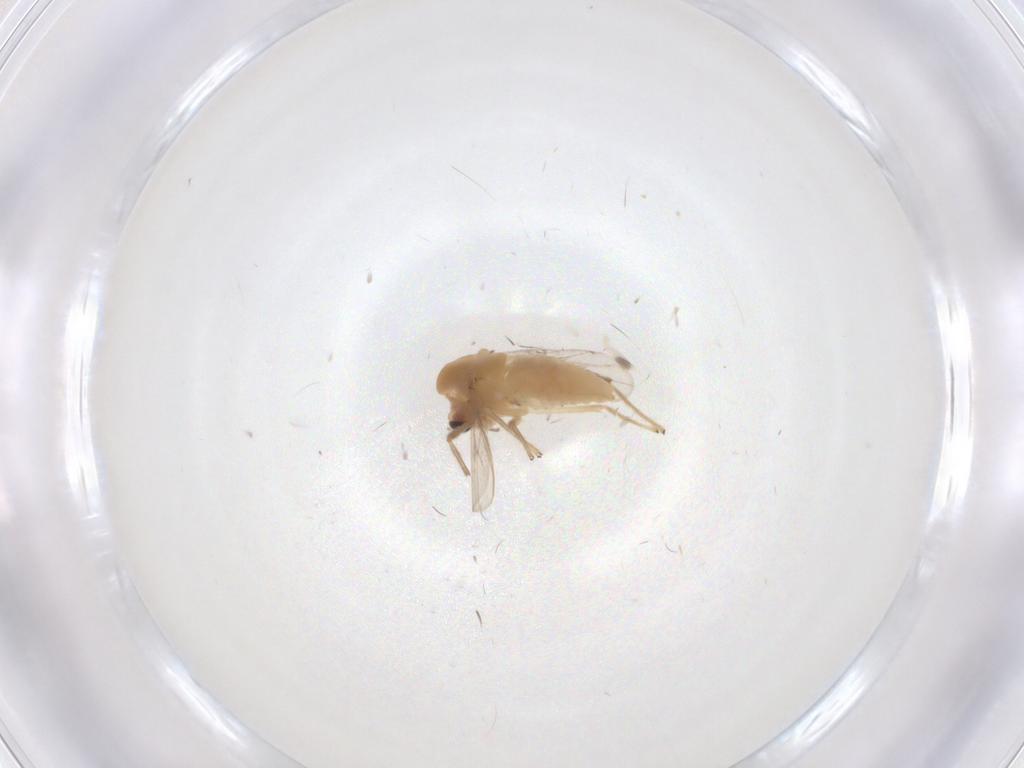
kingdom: Animalia
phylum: Arthropoda
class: Insecta
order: Diptera
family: Chironomidae
